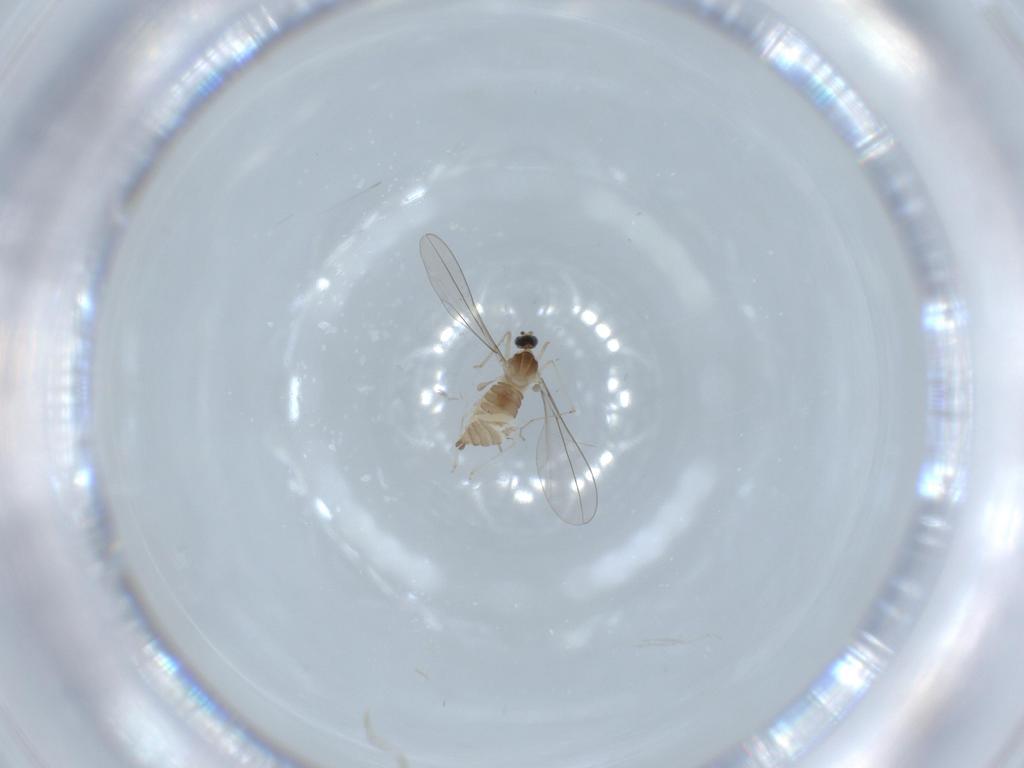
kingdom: Animalia
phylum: Arthropoda
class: Insecta
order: Diptera
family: Cecidomyiidae
